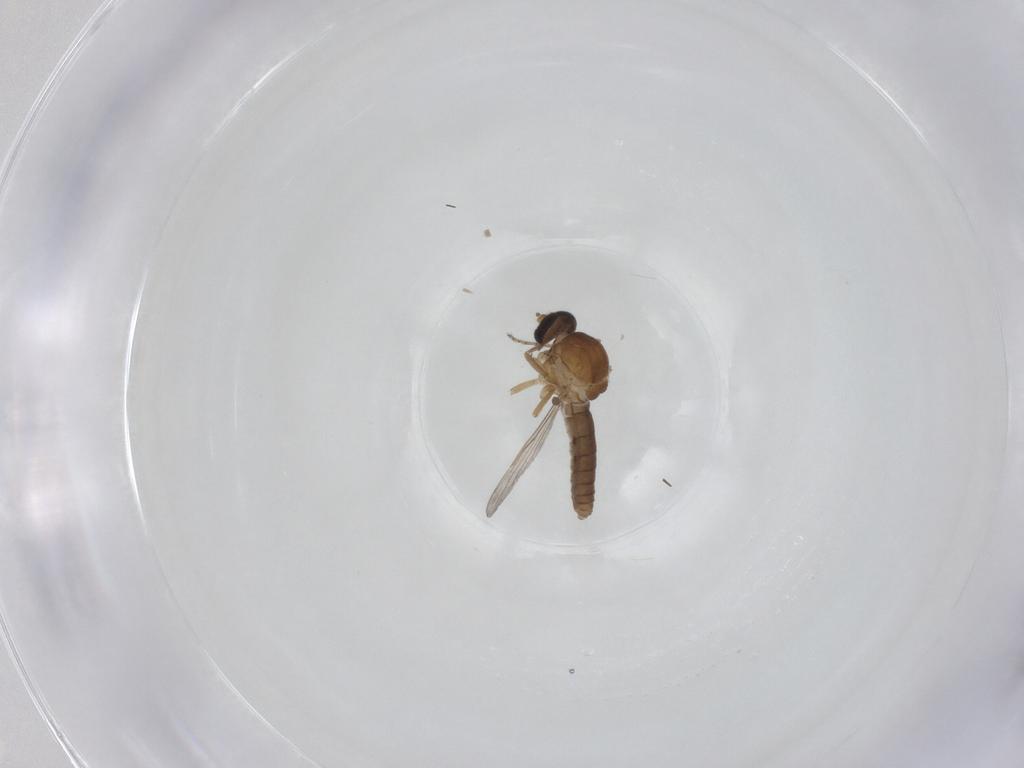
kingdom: Animalia
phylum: Arthropoda
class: Insecta
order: Diptera
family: Ceratopogonidae
